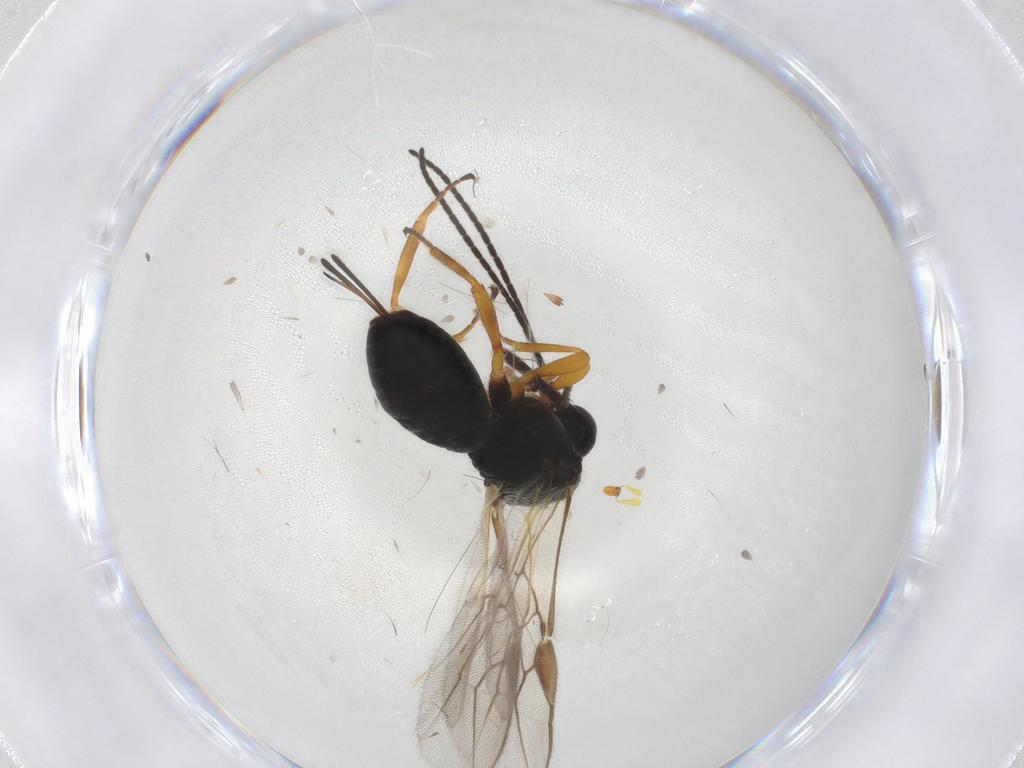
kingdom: Animalia
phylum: Arthropoda
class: Insecta
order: Hymenoptera
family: Braconidae
